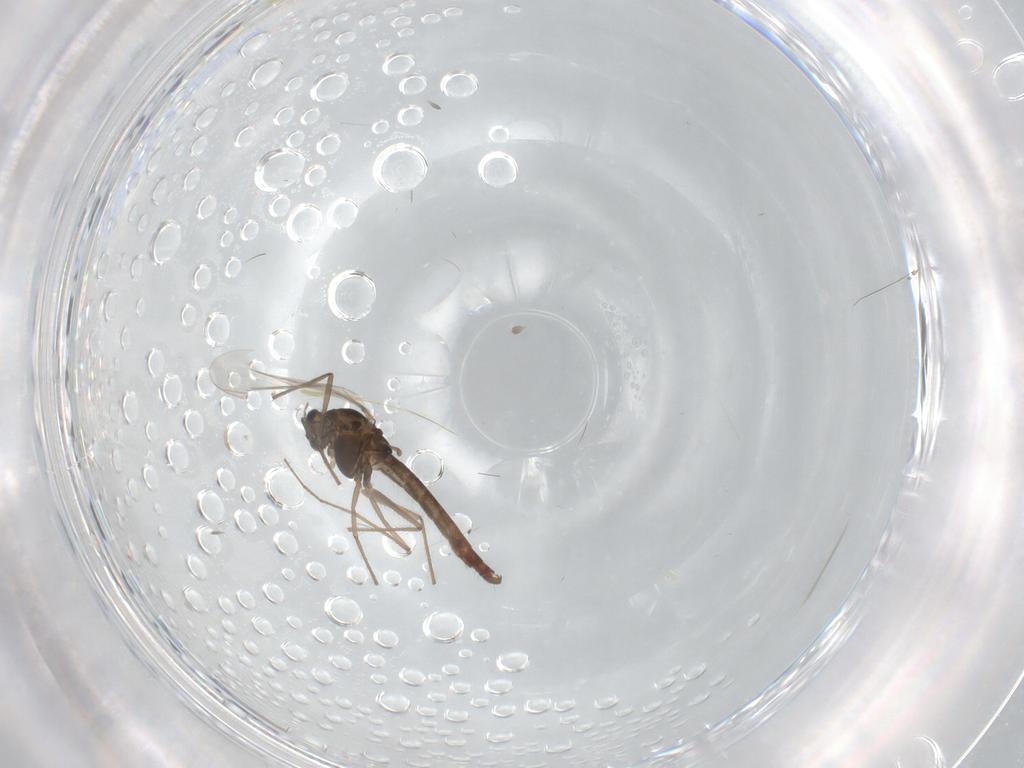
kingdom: Animalia
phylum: Arthropoda
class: Insecta
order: Diptera
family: Chironomidae
